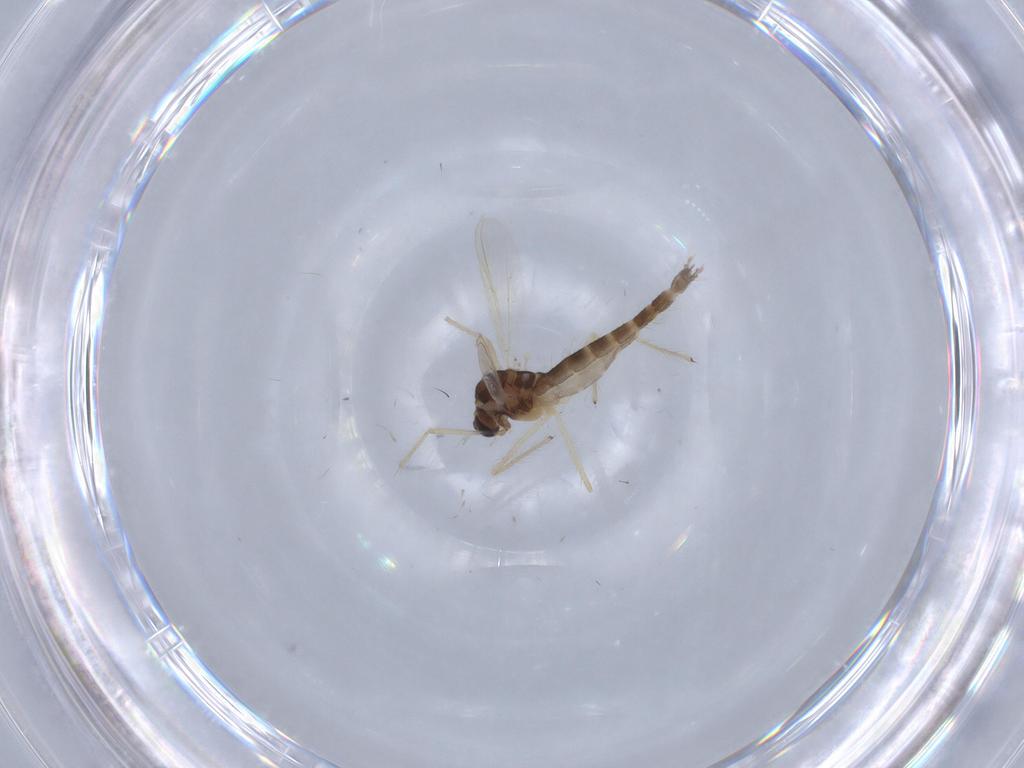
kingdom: Animalia
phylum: Arthropoda
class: Insecta
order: Diptera
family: Chironomidae
